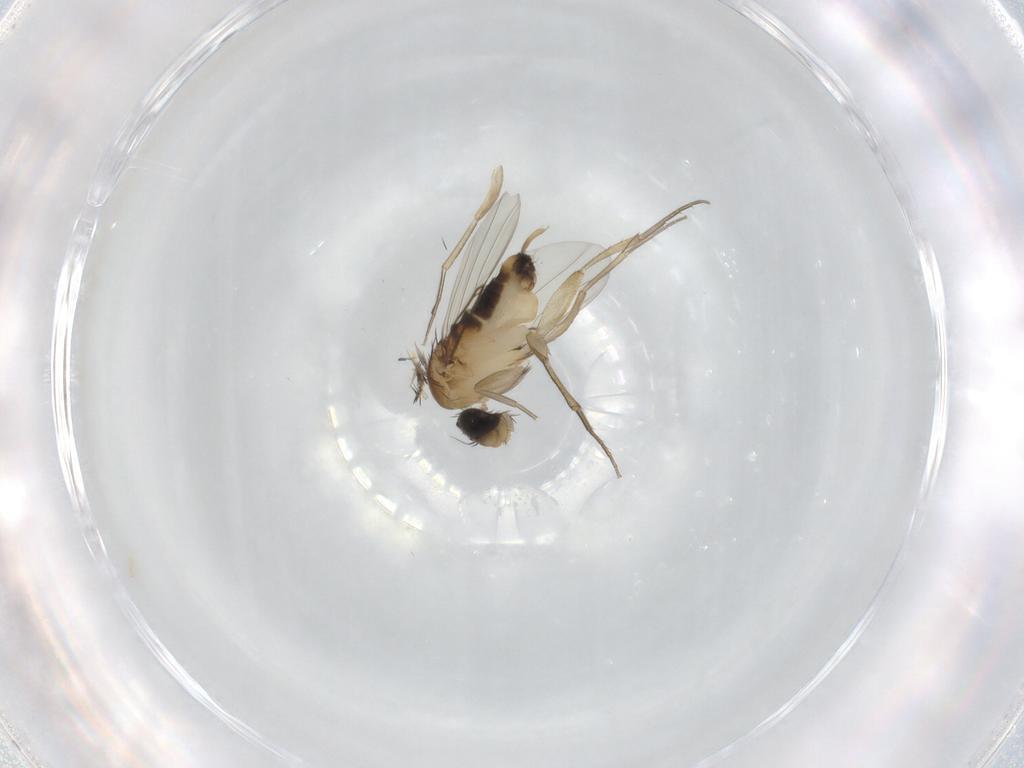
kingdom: Animalia
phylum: Arthropoda
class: Insecta
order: Diptera
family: Phoridae
